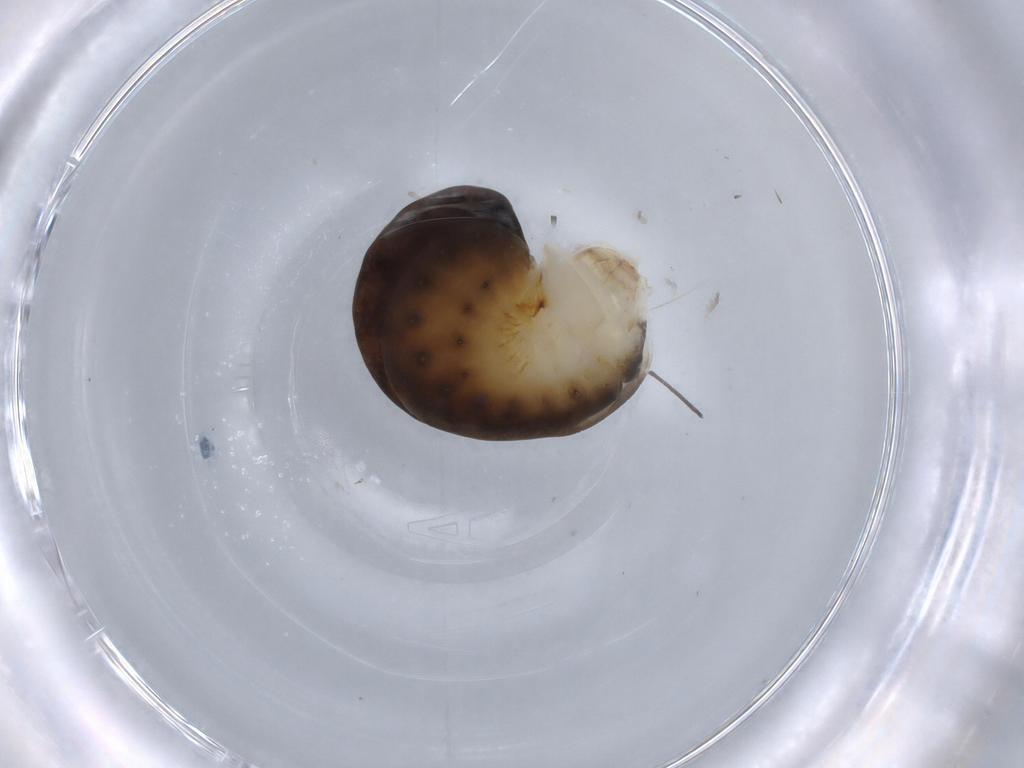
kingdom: Animalia
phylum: Arthropoda
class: Insecta
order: Hymenoptera
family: Dryinidae
